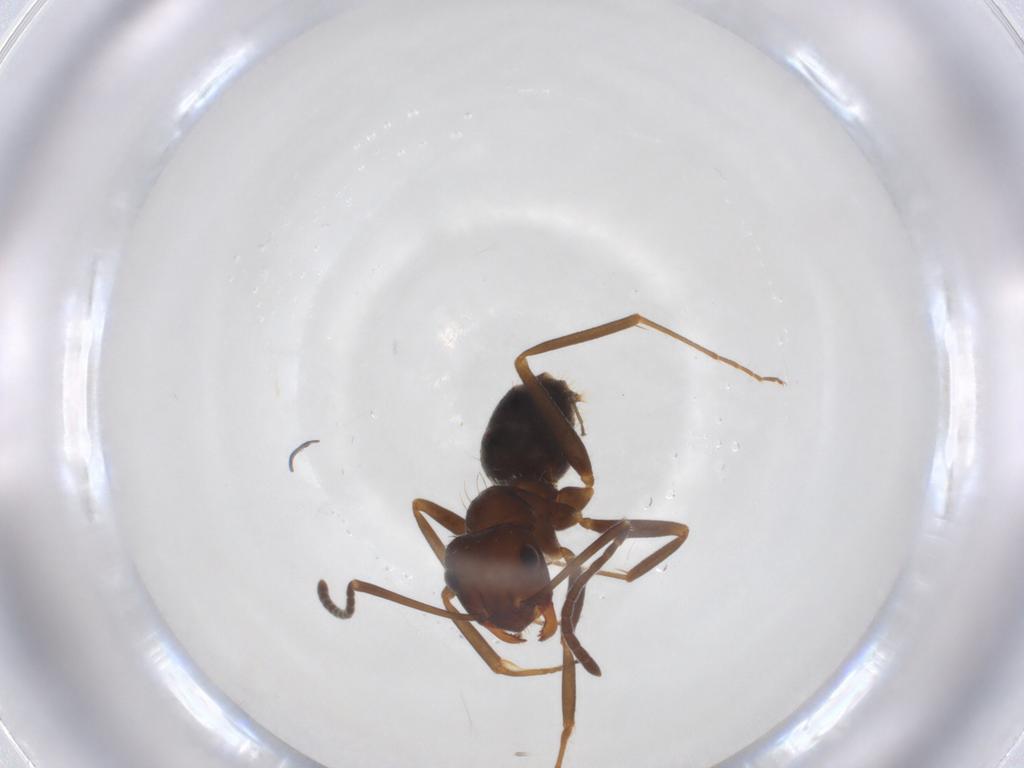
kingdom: Animalia
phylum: Arthropoda
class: Insecta
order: Hymenoptera
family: Formicidae
